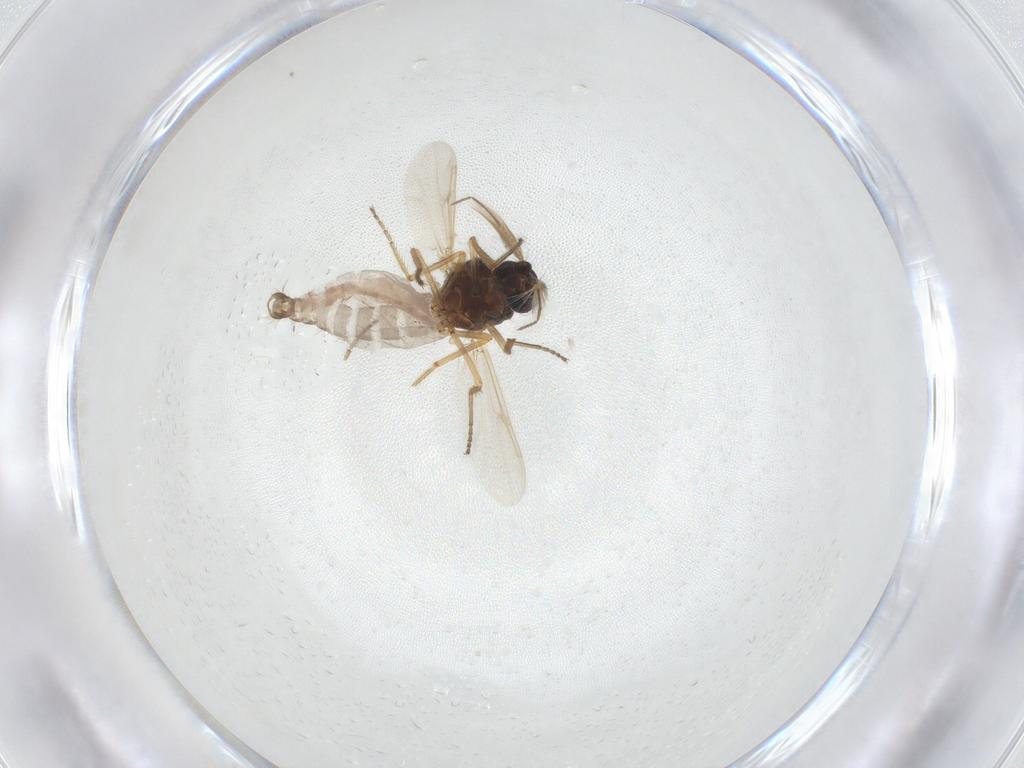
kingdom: Animalia
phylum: Arthropoda
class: Insecta
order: Diptera
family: Ceratopogonidae
